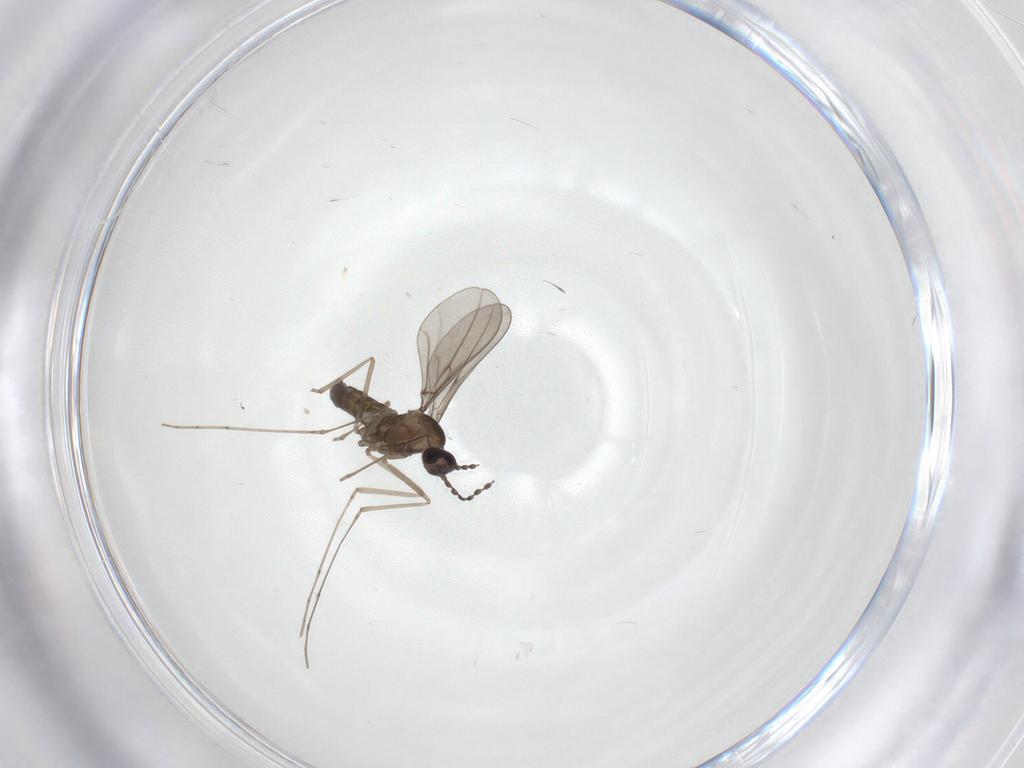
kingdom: Animalia
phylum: Arthropoda
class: Insecta
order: Diptera
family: Cecidomyiidae
